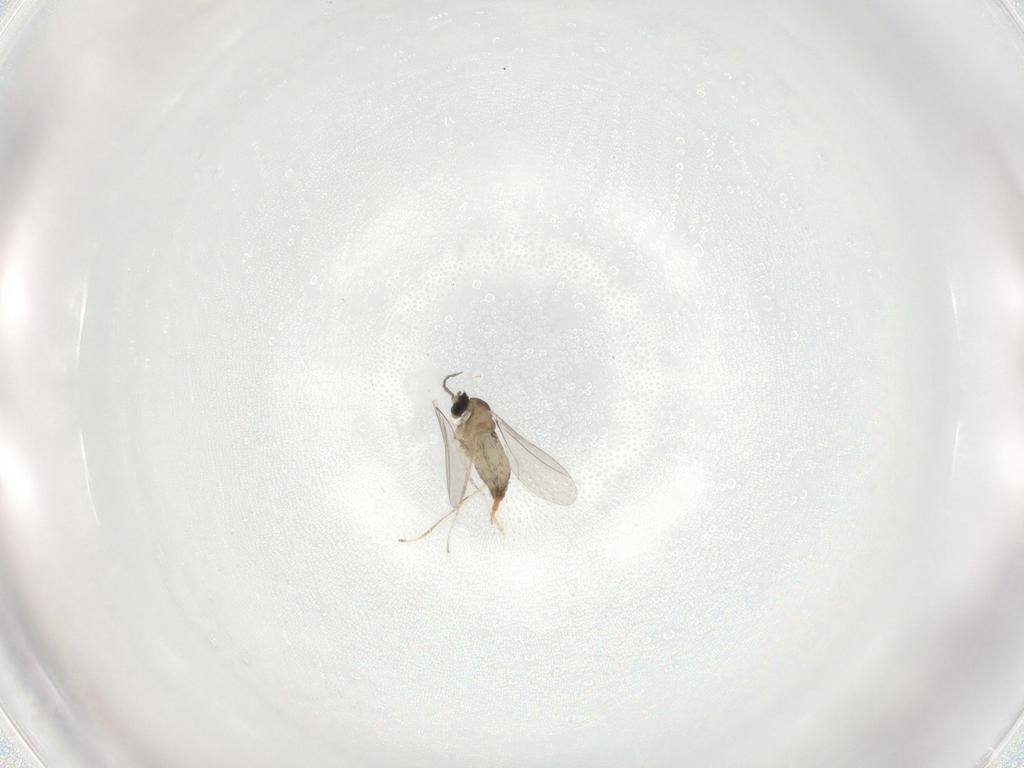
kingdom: Animalia
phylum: Arthropoda
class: Insecta
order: Diptera
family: Cecidomyiidae
